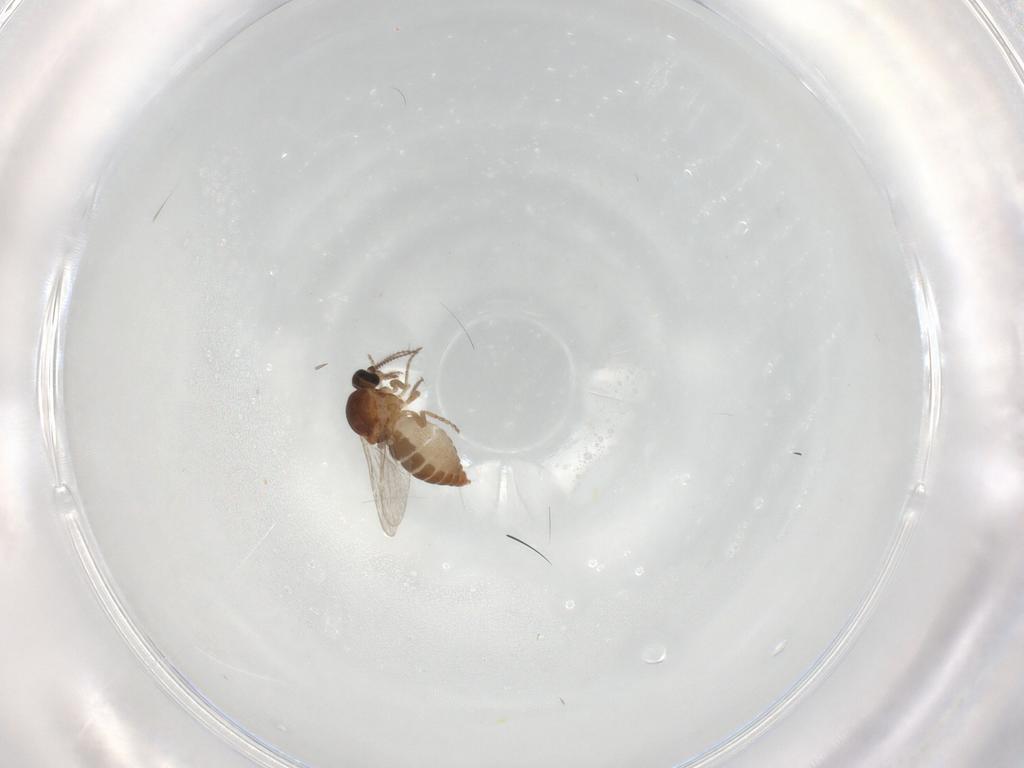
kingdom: Animalia
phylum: Arthropoda
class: Insecta
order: Diptera
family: Ceratopogonidae
